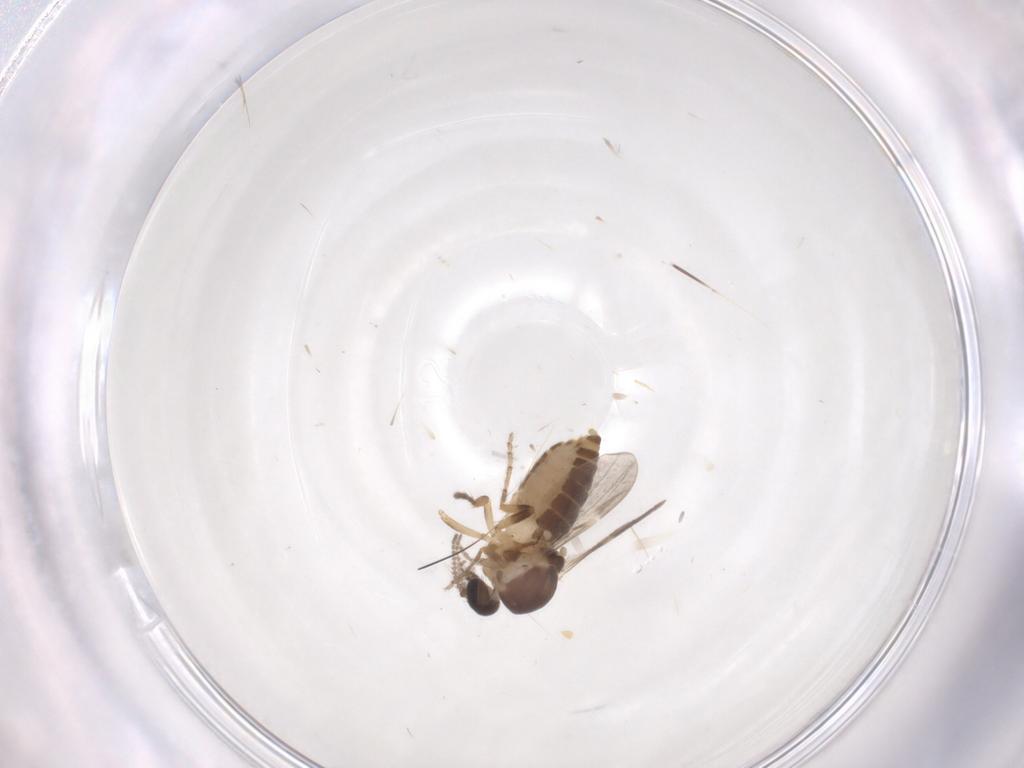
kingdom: Animalia
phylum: Arthropoda
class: Insecta
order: Diptera
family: Ceratopogonidae
